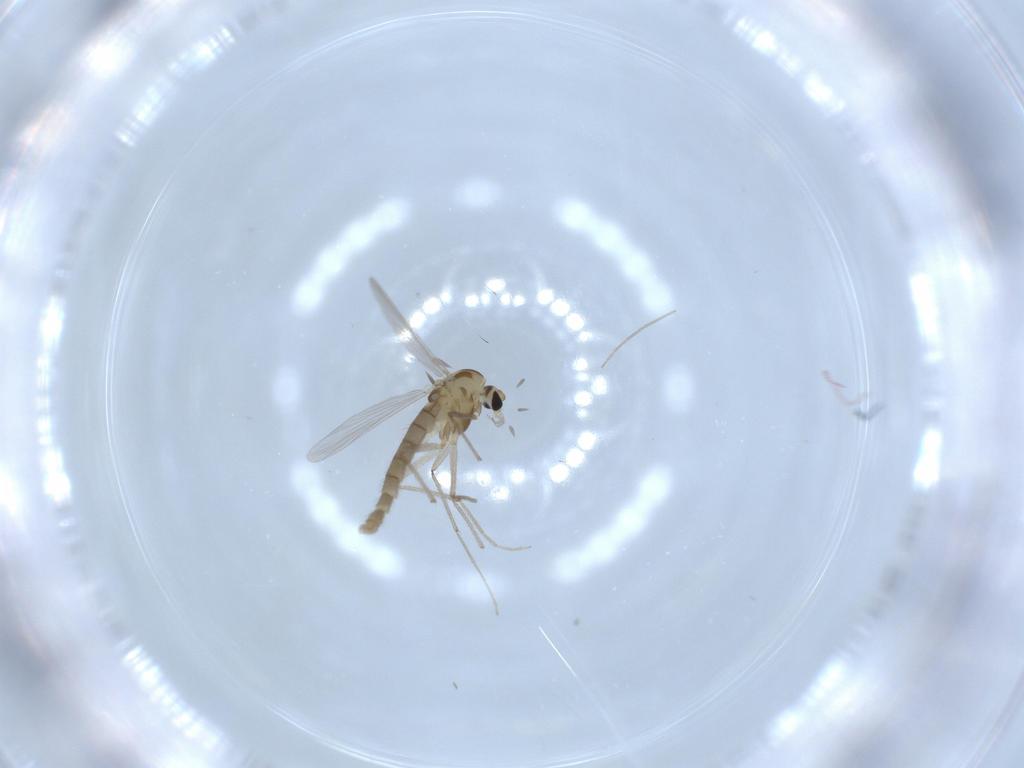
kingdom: Animalia
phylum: Arthropoda
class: Insecta
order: Diptera
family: Chironomidae
